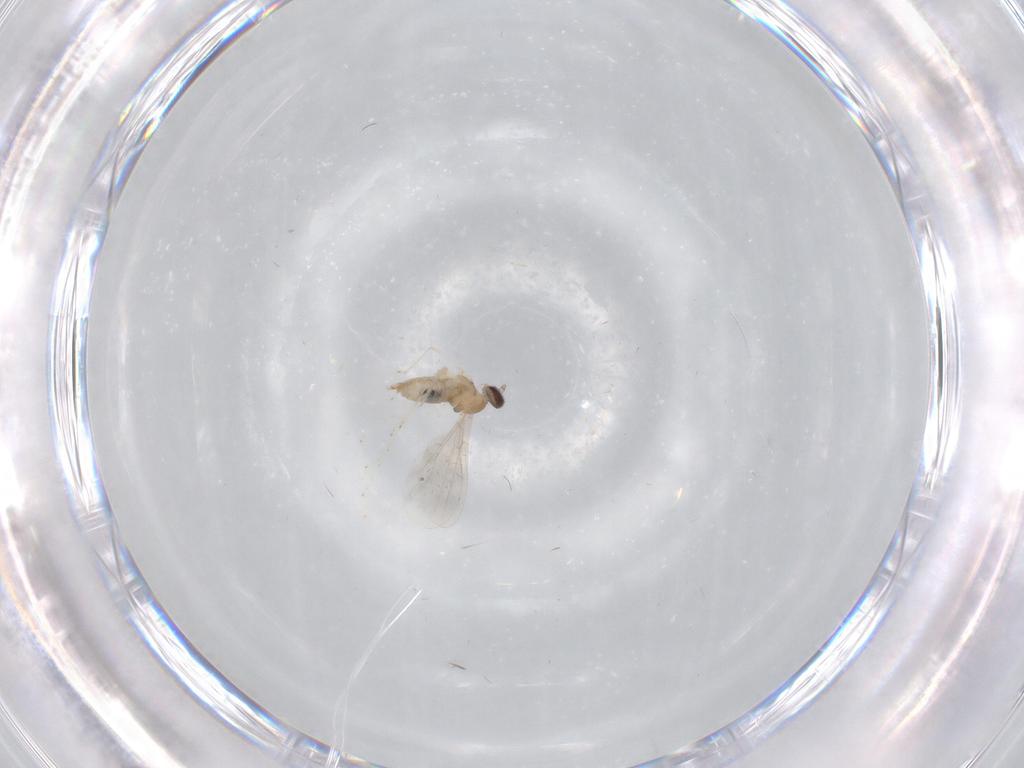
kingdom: Animalia
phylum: Arthropoda
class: Insecta
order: Diptera
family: Cecidomyiidae
